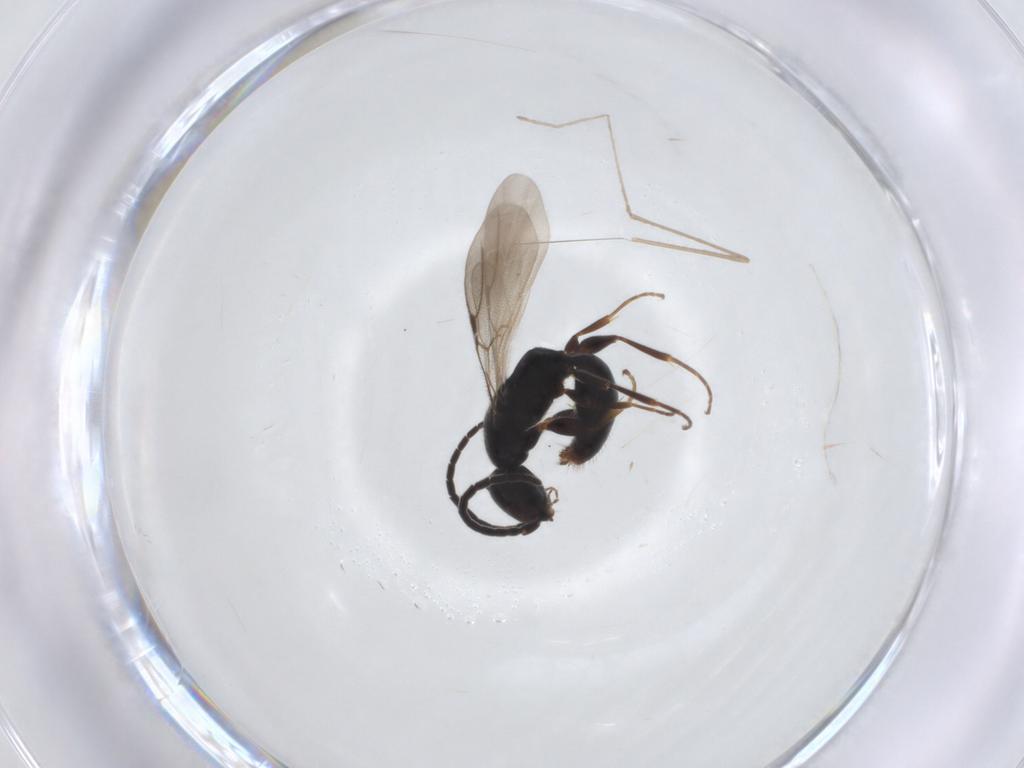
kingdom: Animalia
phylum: Arthropoda
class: Insecta
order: Hymenoptera
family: Bethylidae
